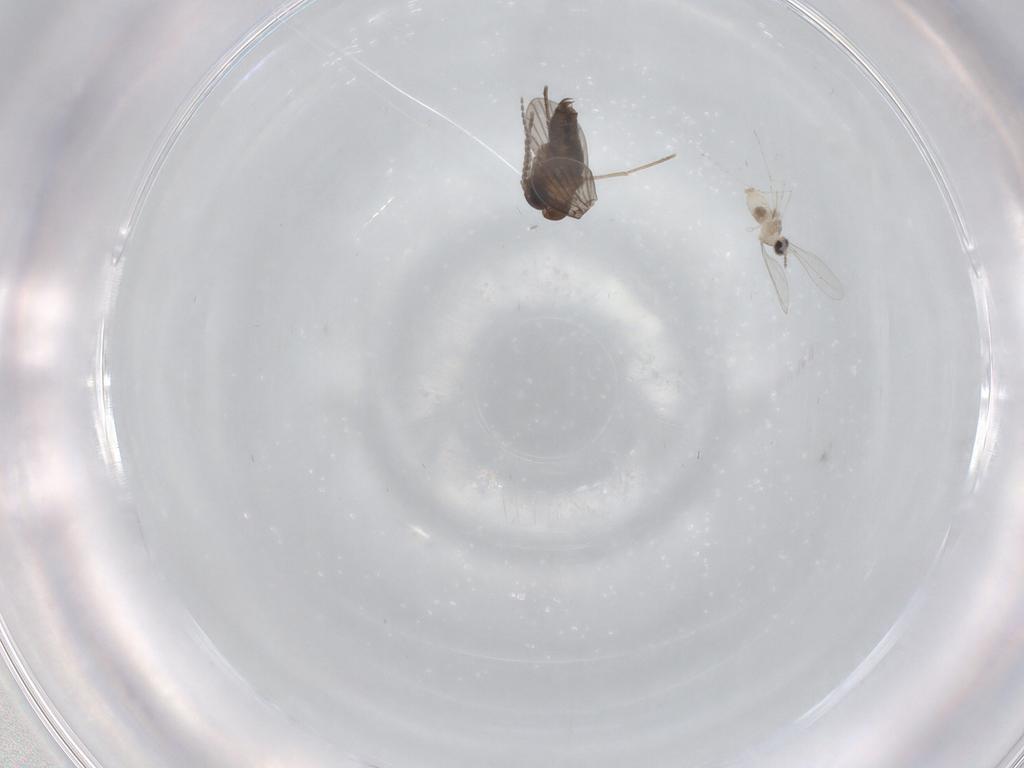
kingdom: Animalia
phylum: Arthropoda
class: Insecta
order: Diptera
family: Cecidomyiidae
